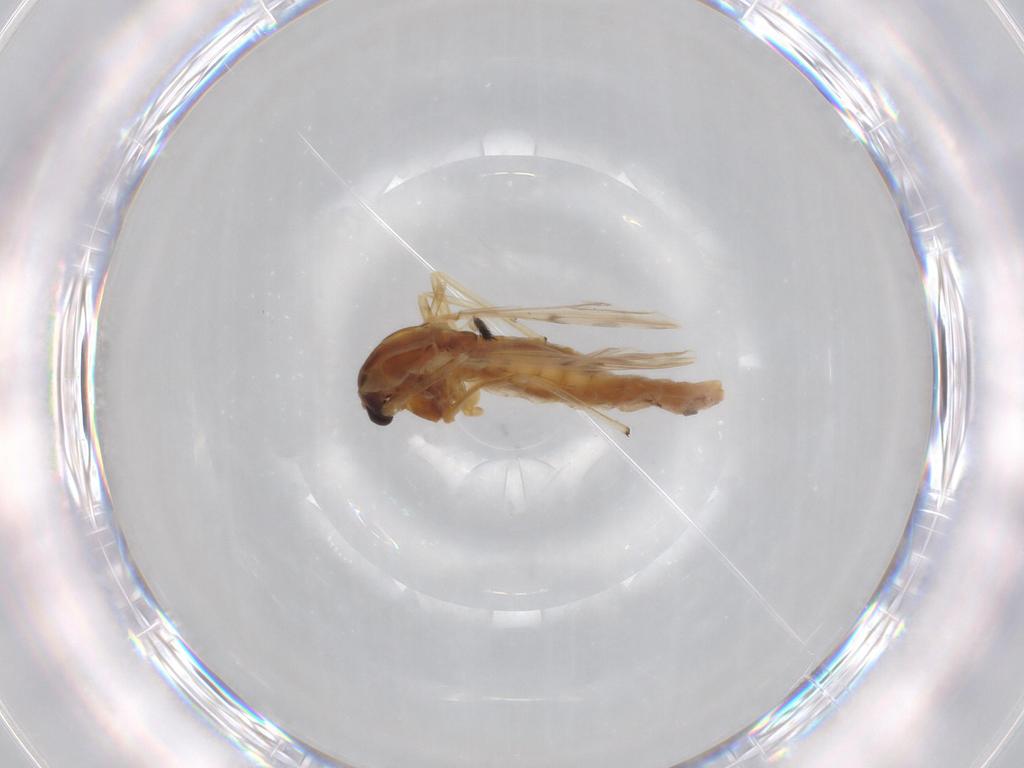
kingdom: Animalia
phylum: Arthropoda
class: Insecta
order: Diptera
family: Chironomidae
